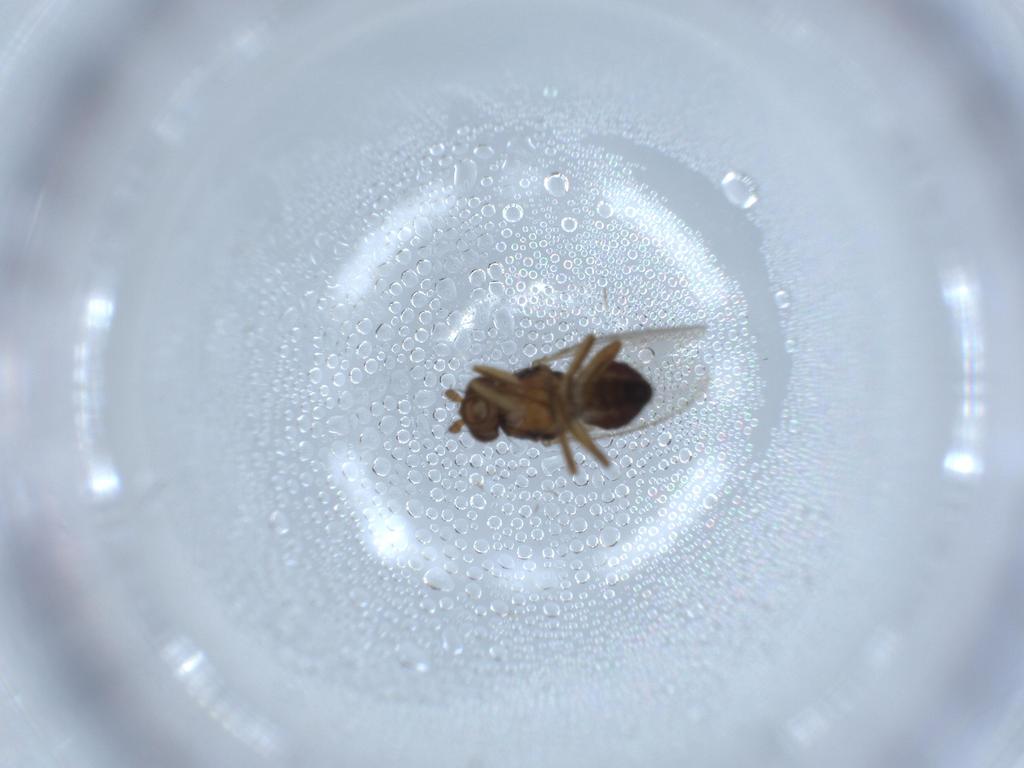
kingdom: Animalia
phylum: Arthropoda
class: Insecta
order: Diptera
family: Sphaeroceridae
